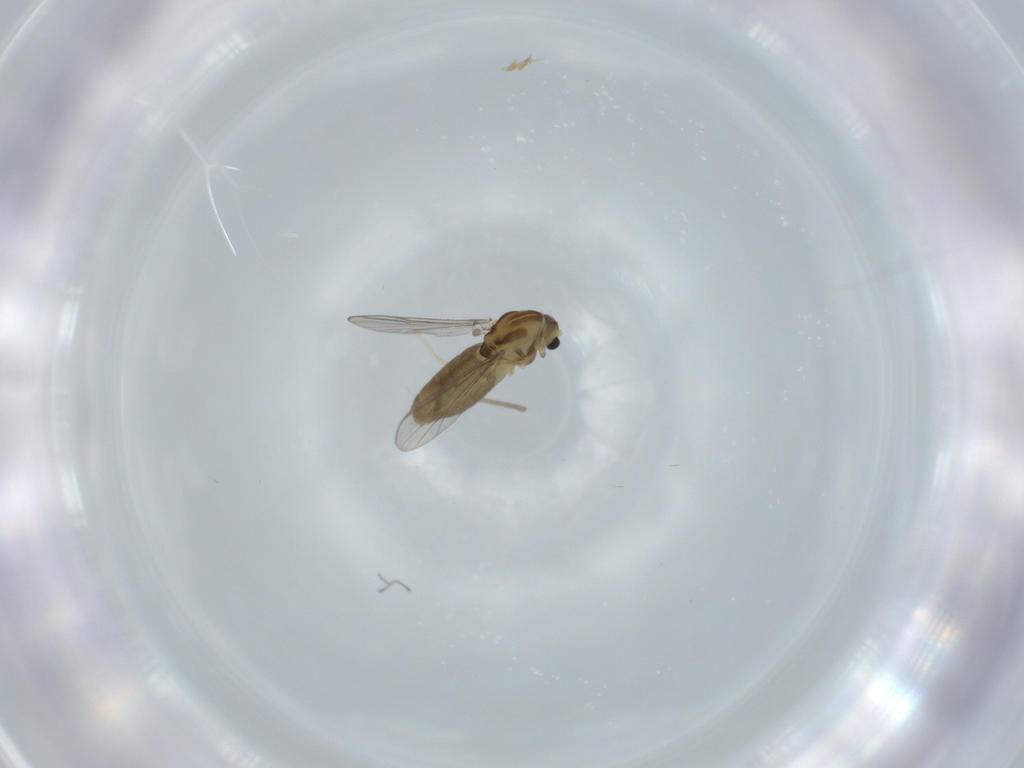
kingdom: Animalia
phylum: Arthropoda
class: Insecta
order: Diptera
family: Chironomidae
